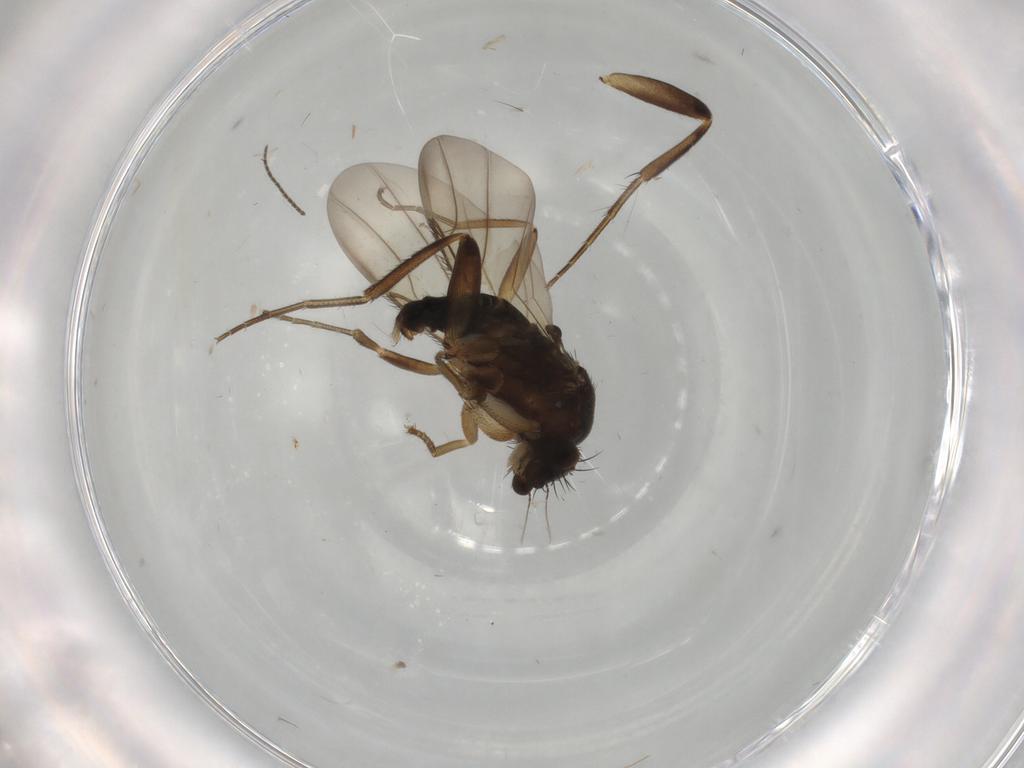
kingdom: Animalia
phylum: Arthropoda
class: Insecta
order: Diptera
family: Phoridae
